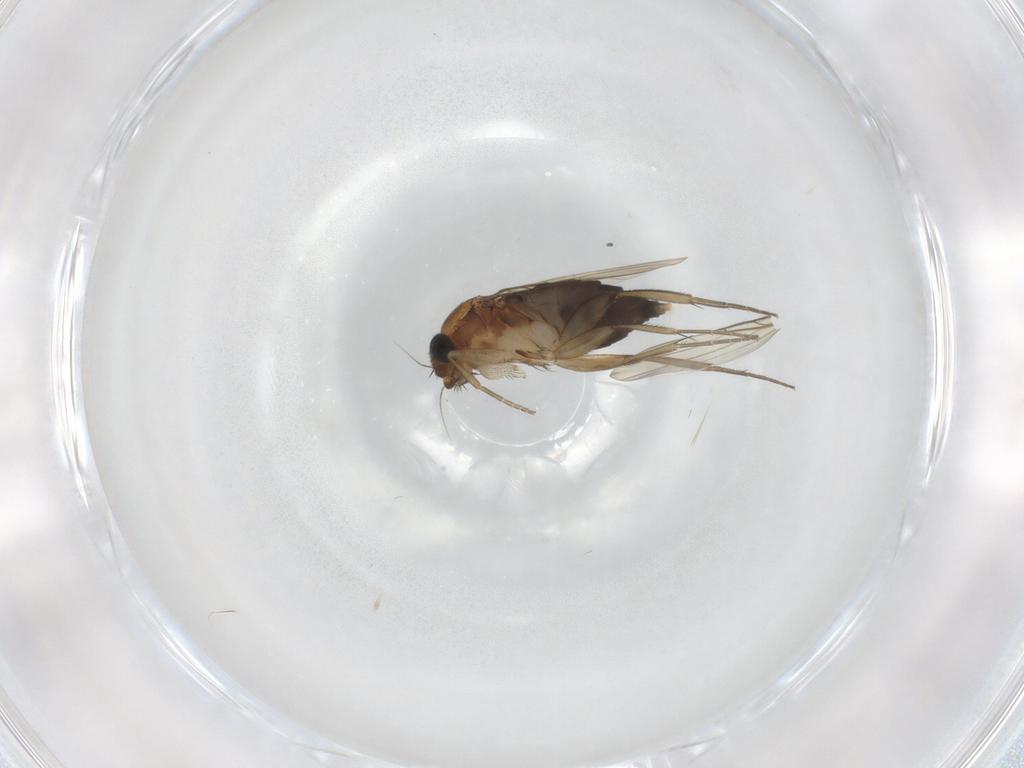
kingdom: Animalia
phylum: Arthropoda
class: Insecta
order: Diptera
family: Phoridae
